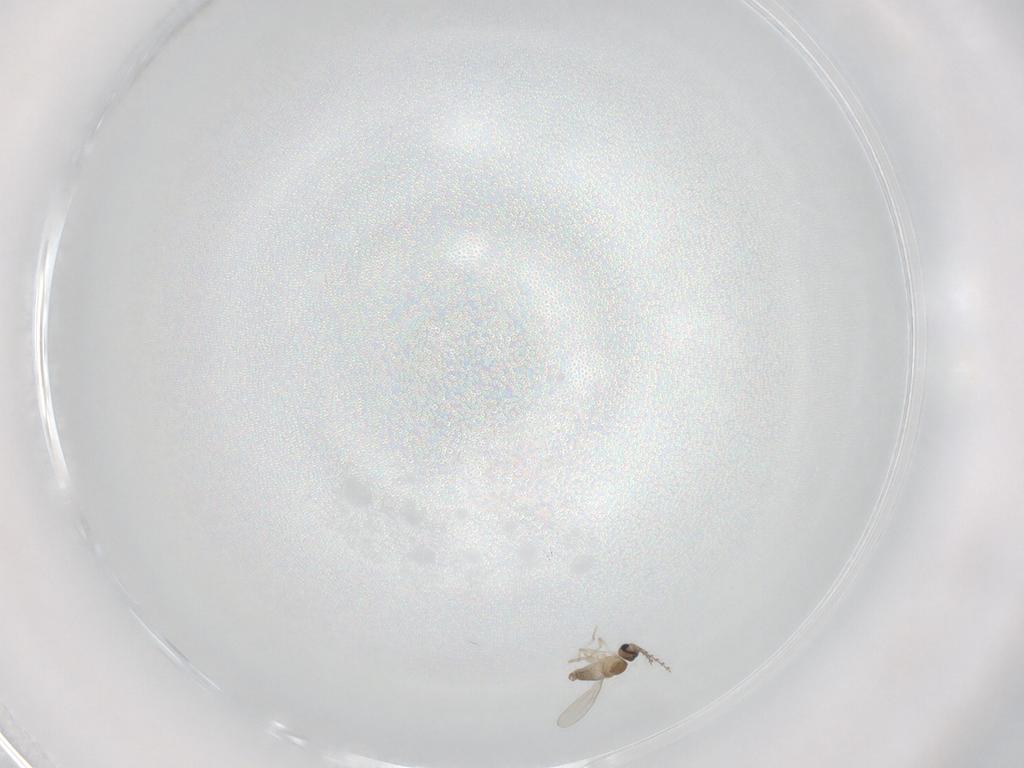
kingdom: Animalia
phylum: Arthropoda
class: Insecta
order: Diptera
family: Cecidomyiidae
